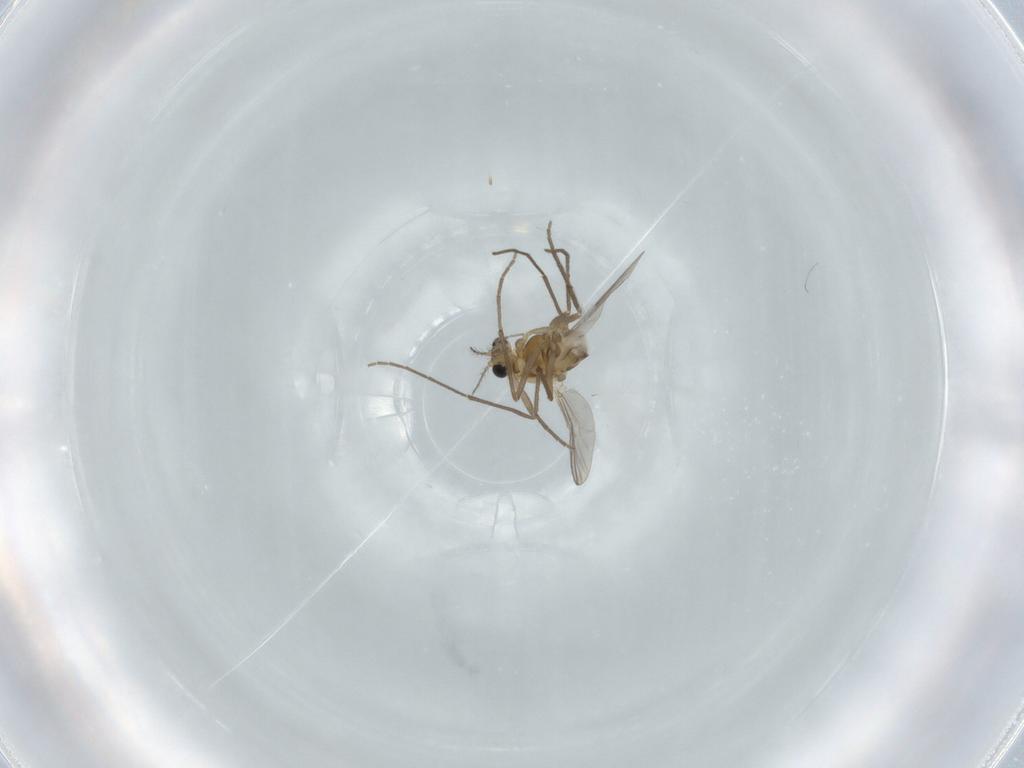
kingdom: Animalia
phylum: Arthropoda
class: Insecta
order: Diptera
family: Chironomidae
